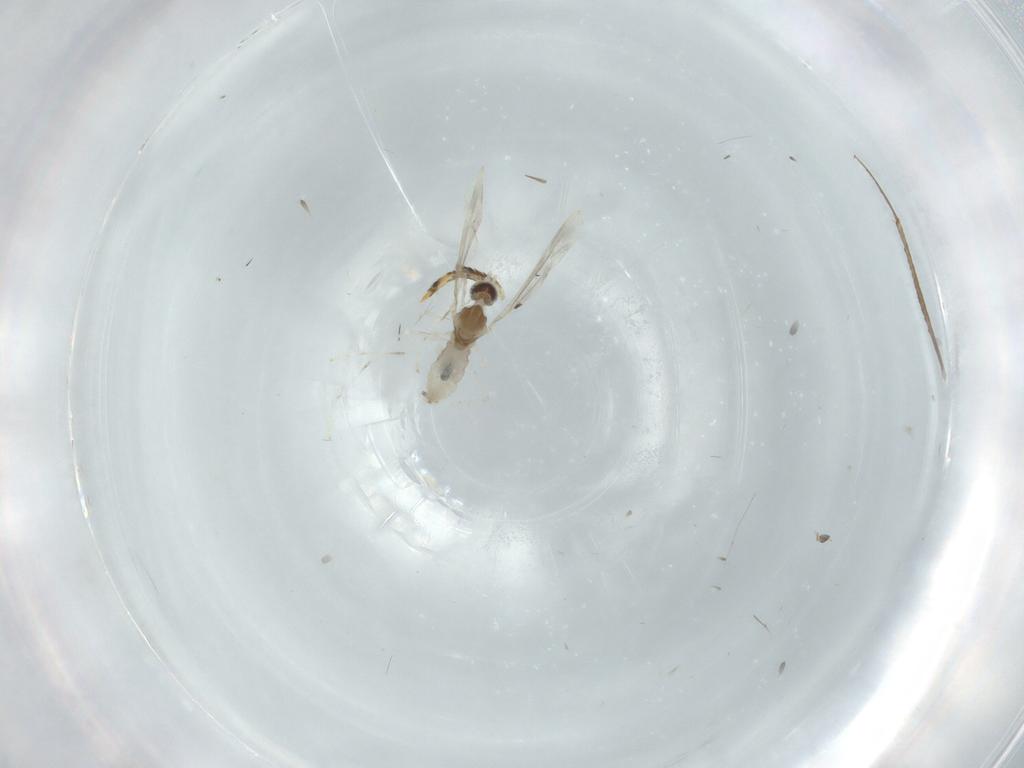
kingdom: Animalia
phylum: Arthropoda
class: Insecta
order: Diptera
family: Cecidomyiidae
